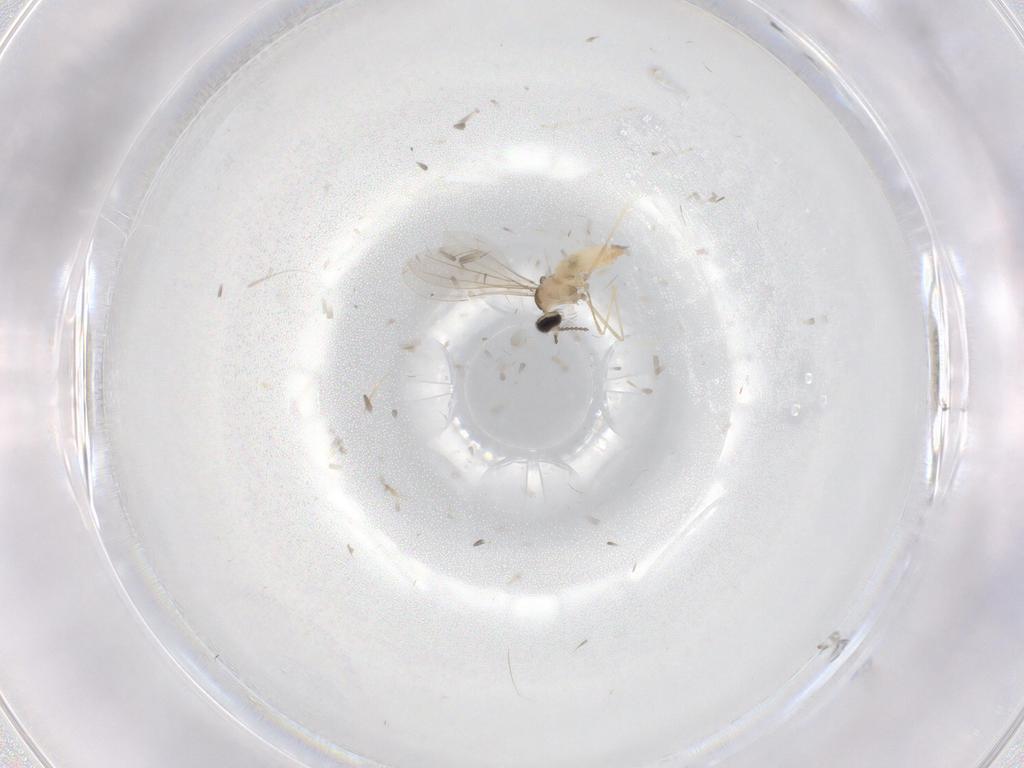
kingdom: Animalia
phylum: Arthropoda
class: Insecta
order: Diptera
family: Cecidomyiidae
